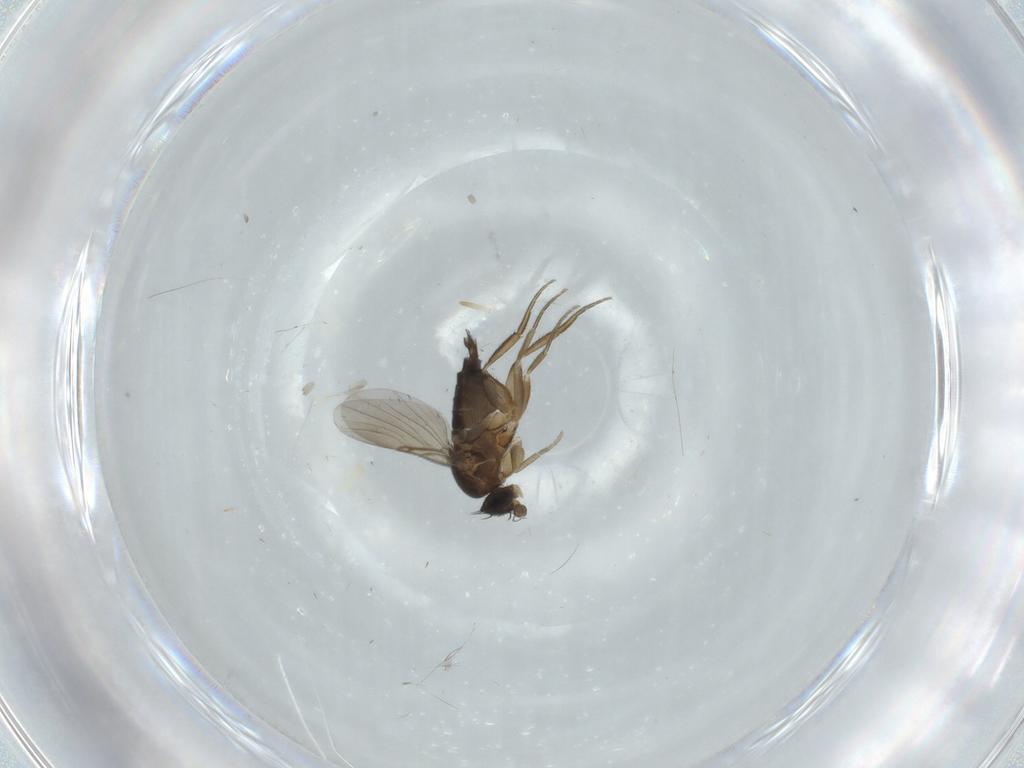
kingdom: Animalia
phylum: Arthropoda
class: Insecta
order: Diptera
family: Phoridae
